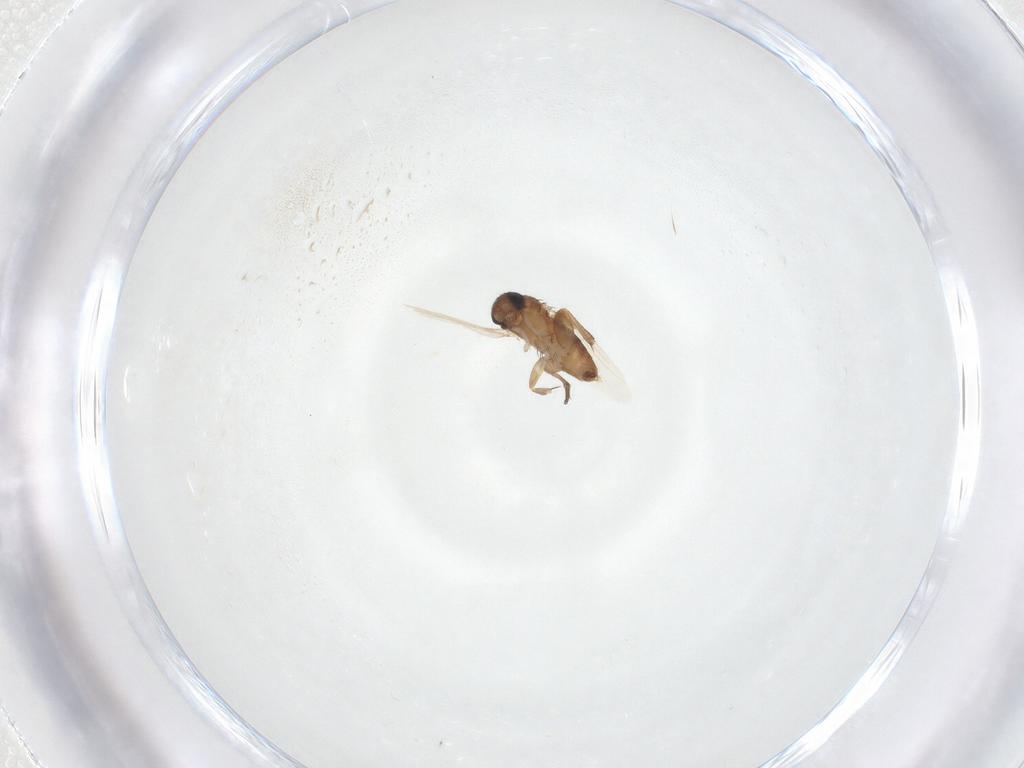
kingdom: Animalia
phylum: Arthropoda
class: Insecta
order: Diptera
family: Phoridae
